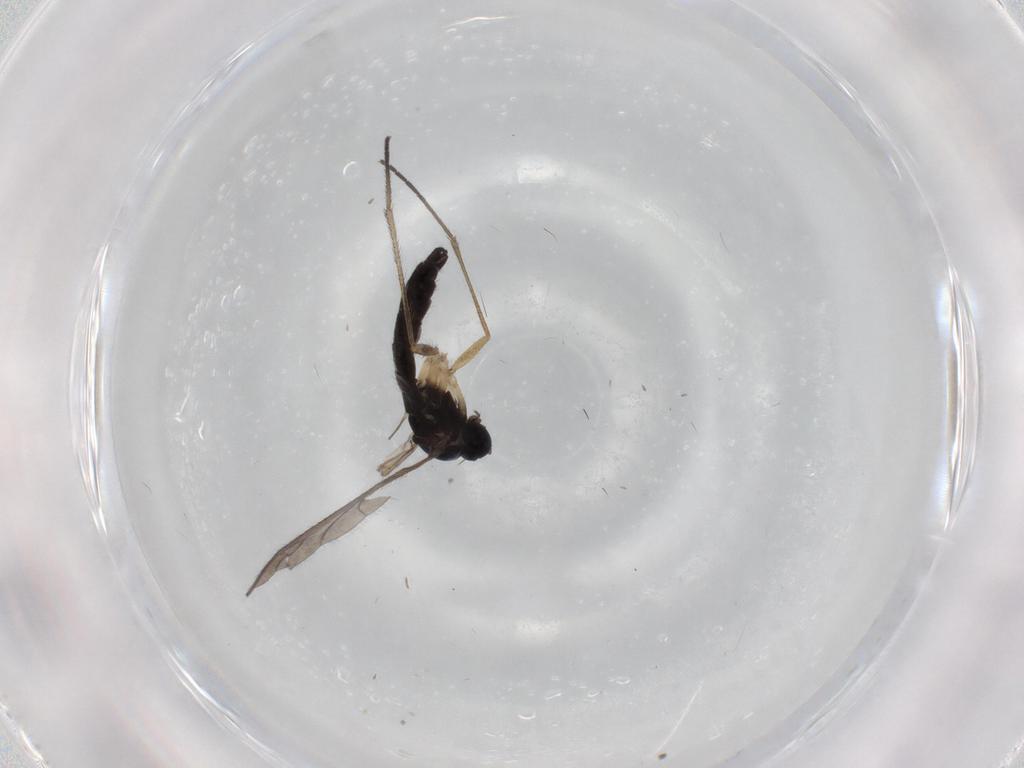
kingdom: Animalia
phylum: Arthropoda
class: Insecta
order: Diptera
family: Sciaridae
